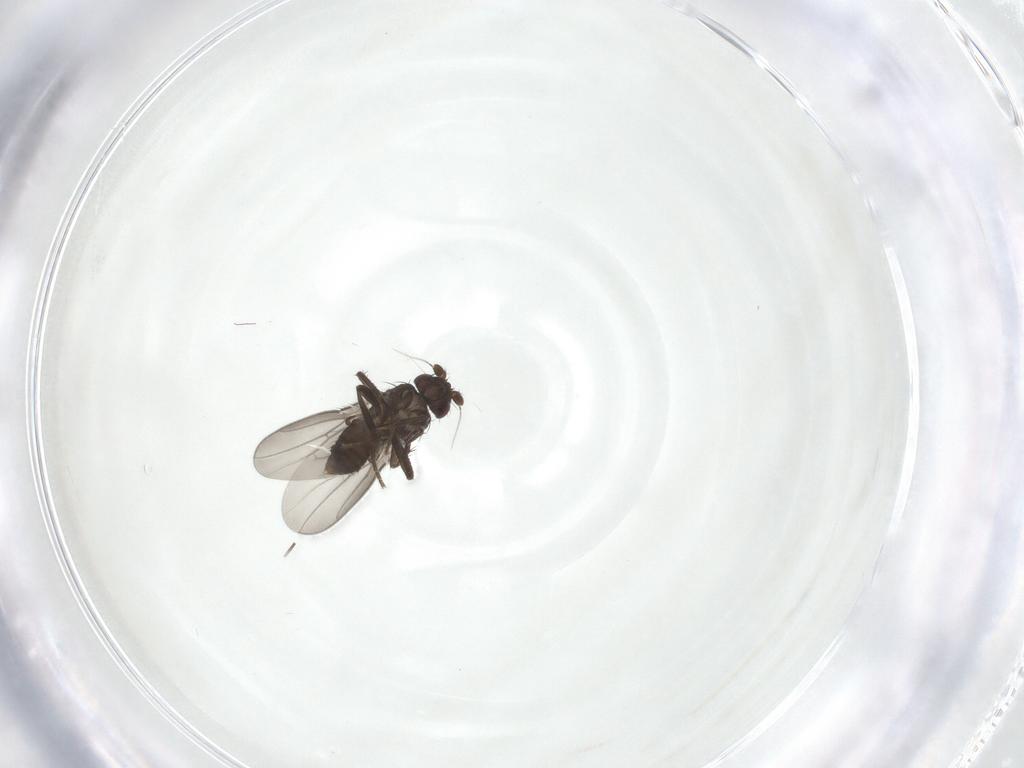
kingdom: Animalia
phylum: Arthropoda
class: Insecta
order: Diptera
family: Sphaeroceridae
